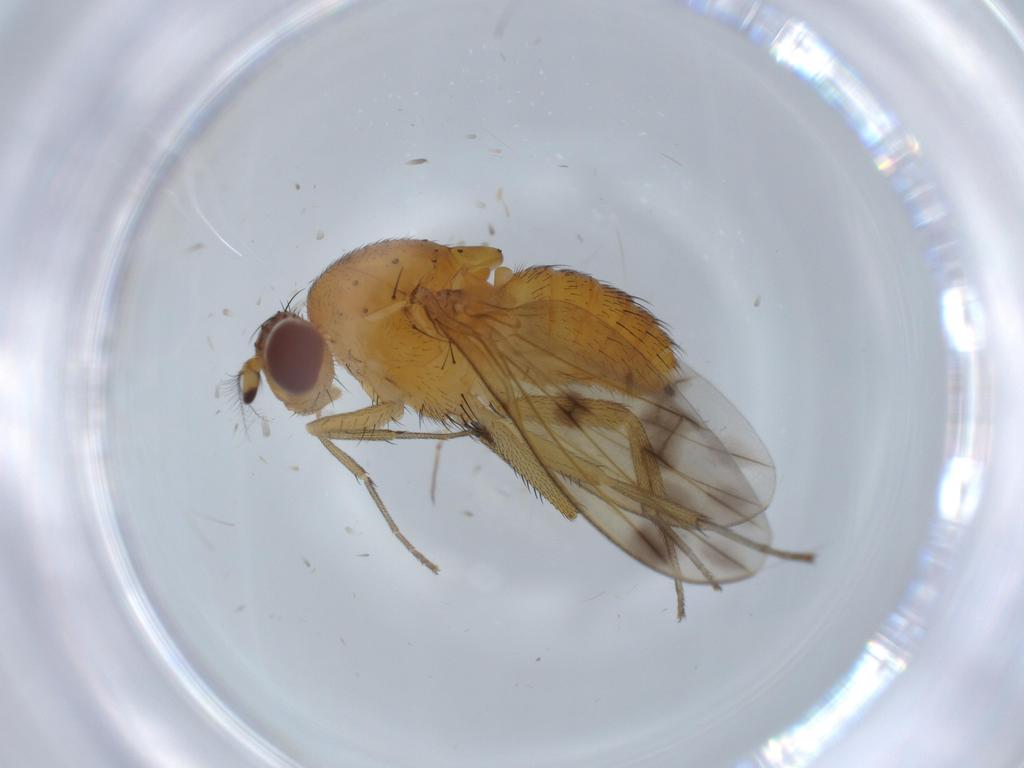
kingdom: Animalia
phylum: Arthropoda
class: Insecta
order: Diptera
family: Lauxaniidae
